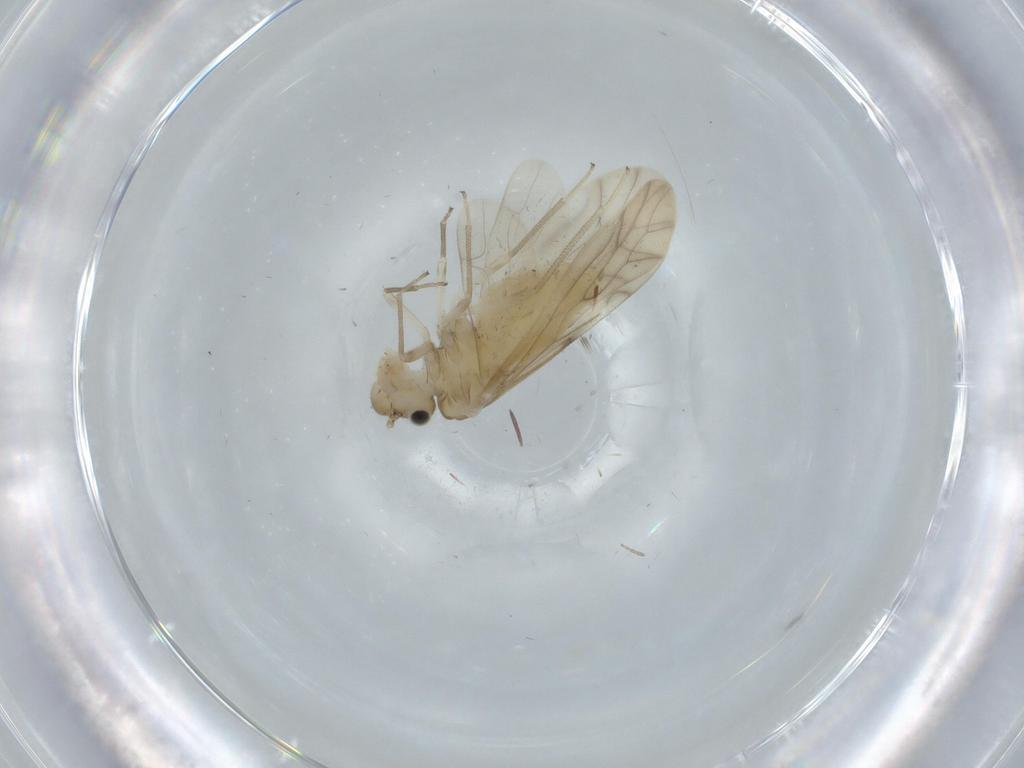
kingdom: Animalia
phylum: Arthropoda
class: Insecta
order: Psocodea
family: Caeciliusidae
